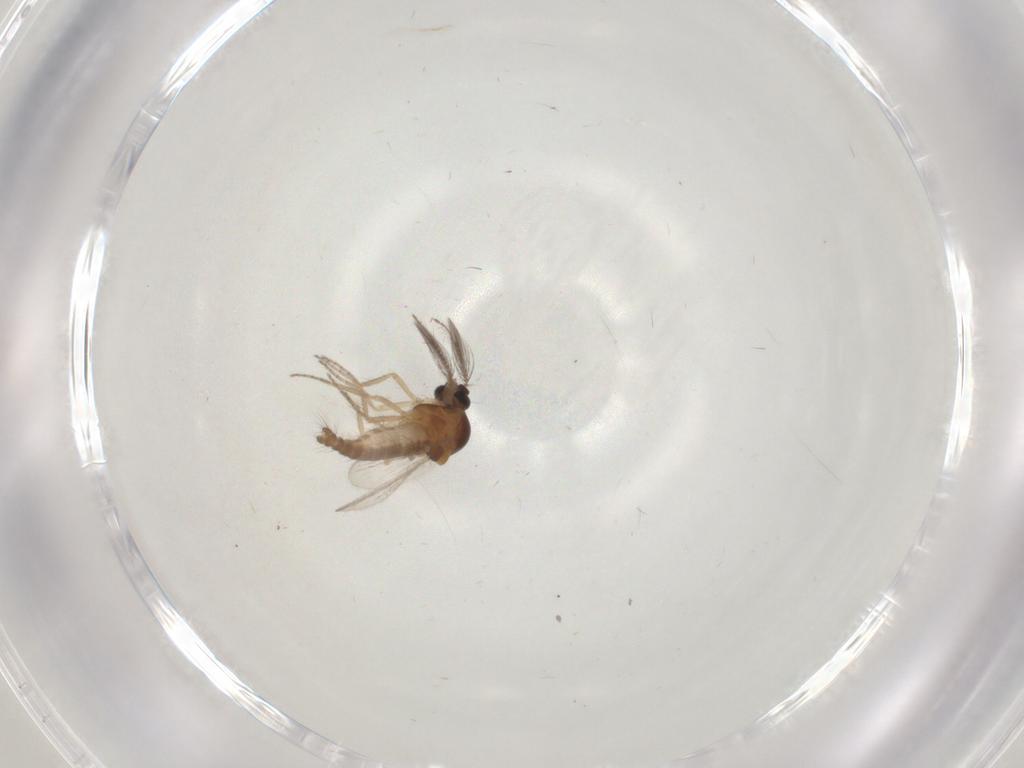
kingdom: Animalia
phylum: Arthropoda
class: Insecta
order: Diptera
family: Ceratopogonidae
